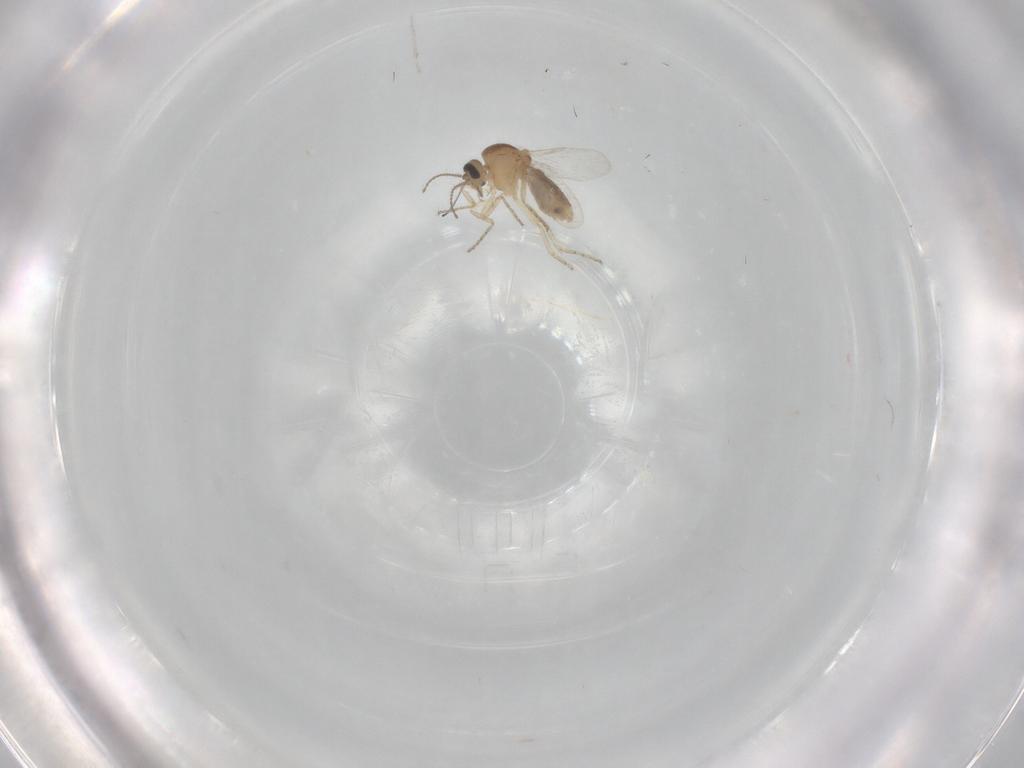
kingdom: Animalia
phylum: Arthropoda
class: Insecta
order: Diptera
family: Ceratopogonidae
